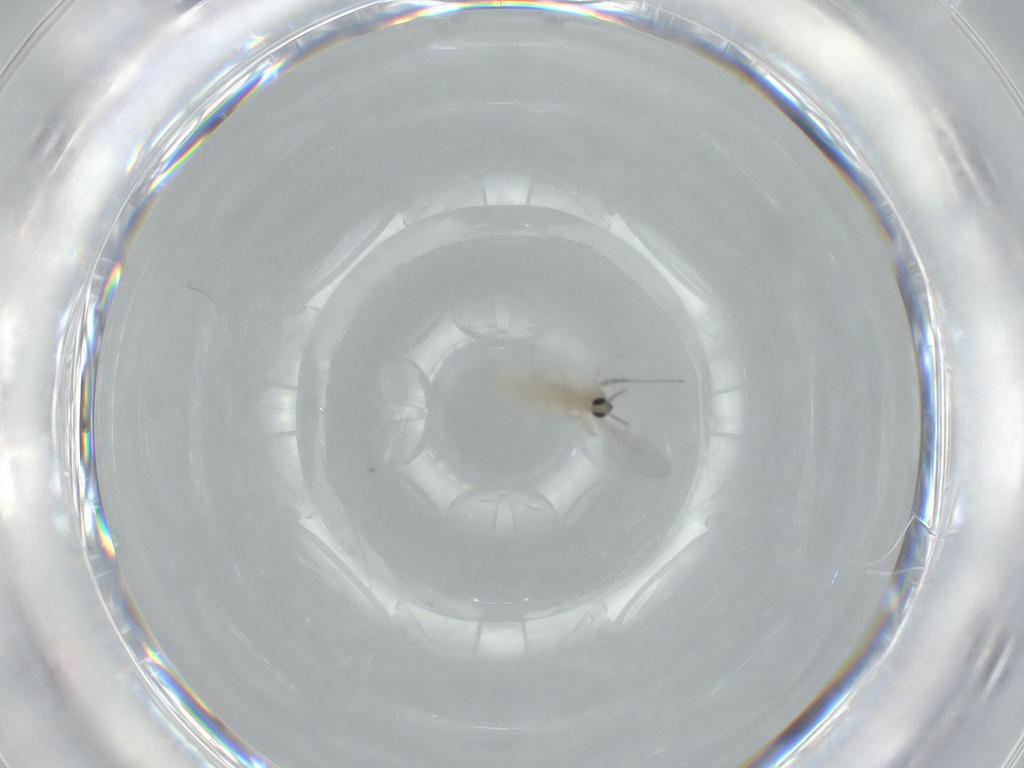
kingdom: Animalia
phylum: Arthropoda
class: Insecta
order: Diptera
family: Cecidomyiidae
